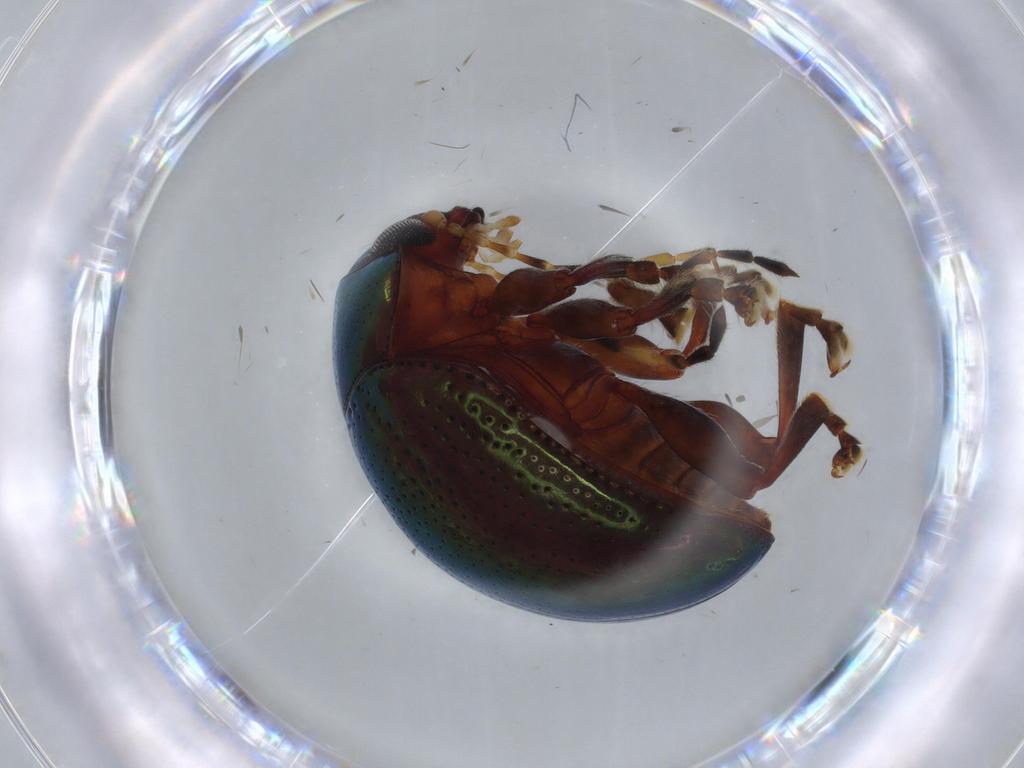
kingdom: Animalia
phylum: Arthropoda
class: Insecta
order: Coleoptera
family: Chrysomelidae
